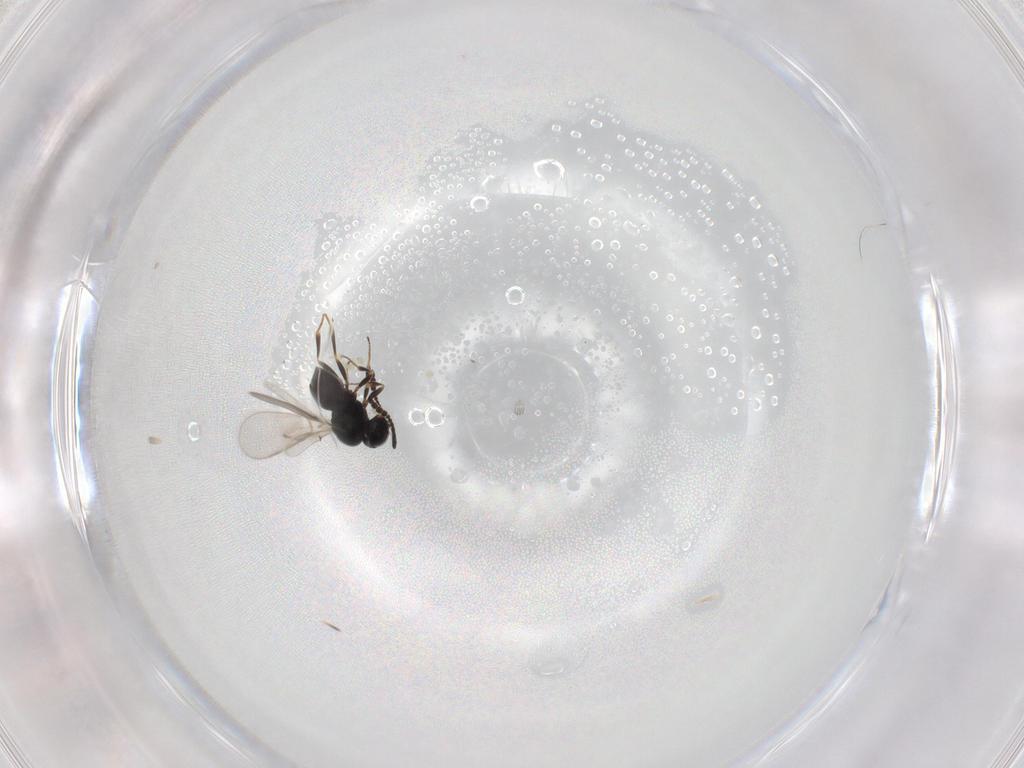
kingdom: Animalia
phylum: Arthropoda
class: Insecta
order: Hymenoptera
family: Scelionidae
